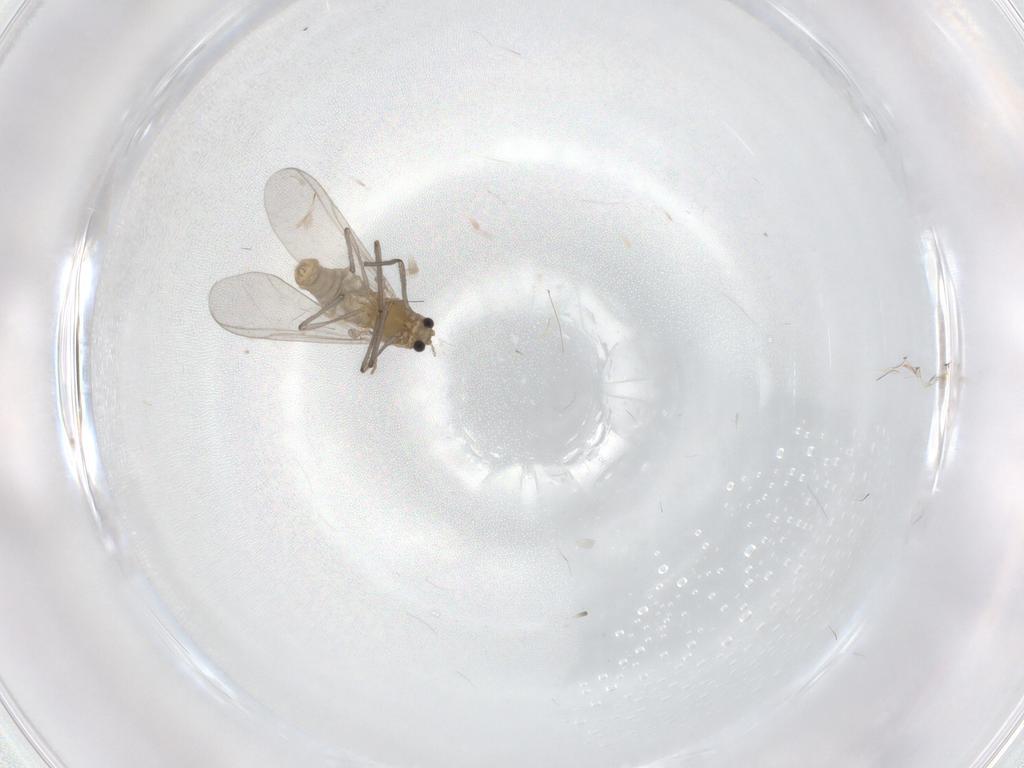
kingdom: Animalia
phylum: Arthropoda
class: Insecta
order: Diptera
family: Chironomidae
